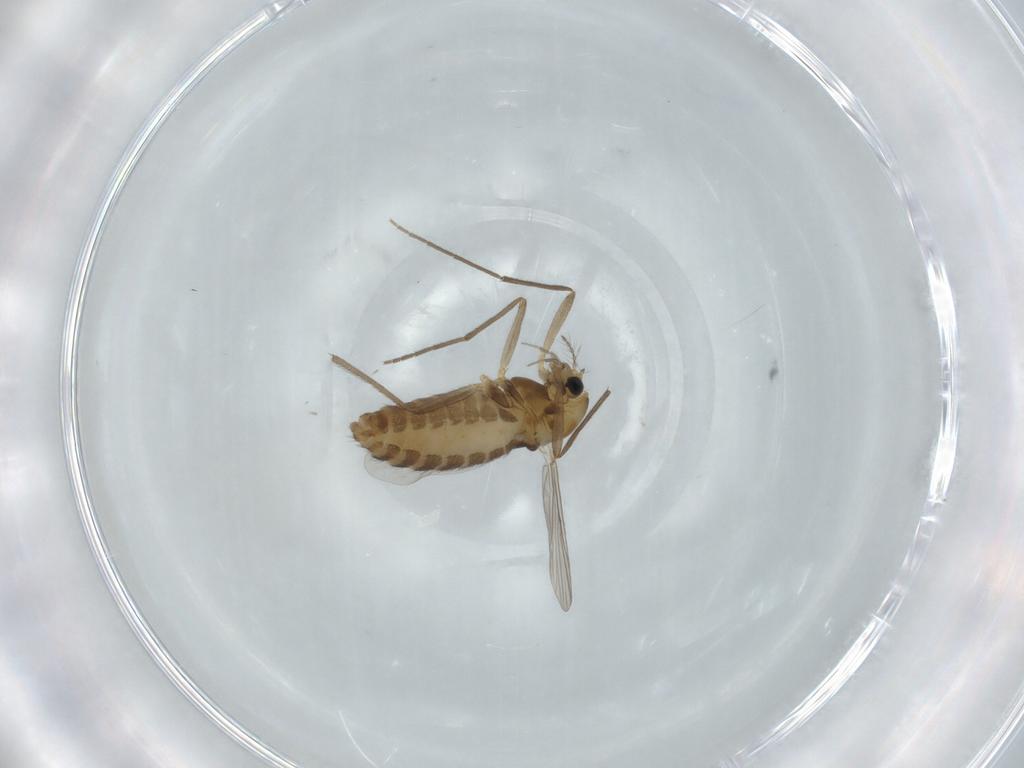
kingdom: Animalia
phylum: Arthropoda
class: Insecta
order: Diptera
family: Chironomidae
